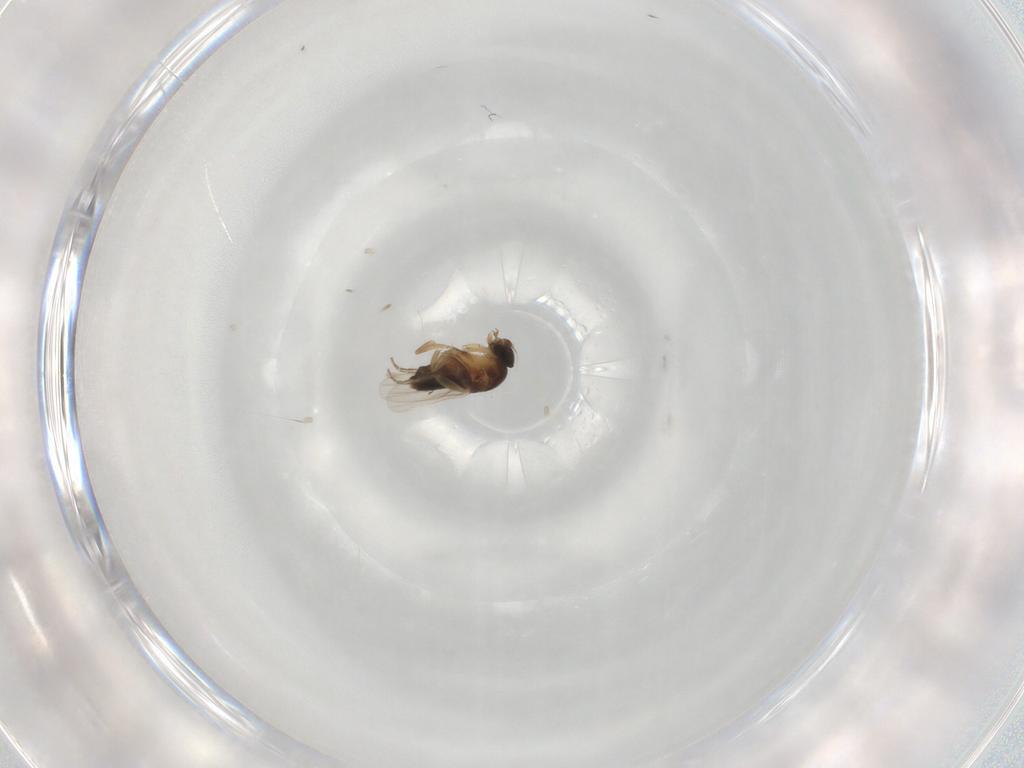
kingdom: Animalia
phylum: Arthropoda
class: Insecta
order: Diptera
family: Phoridae
